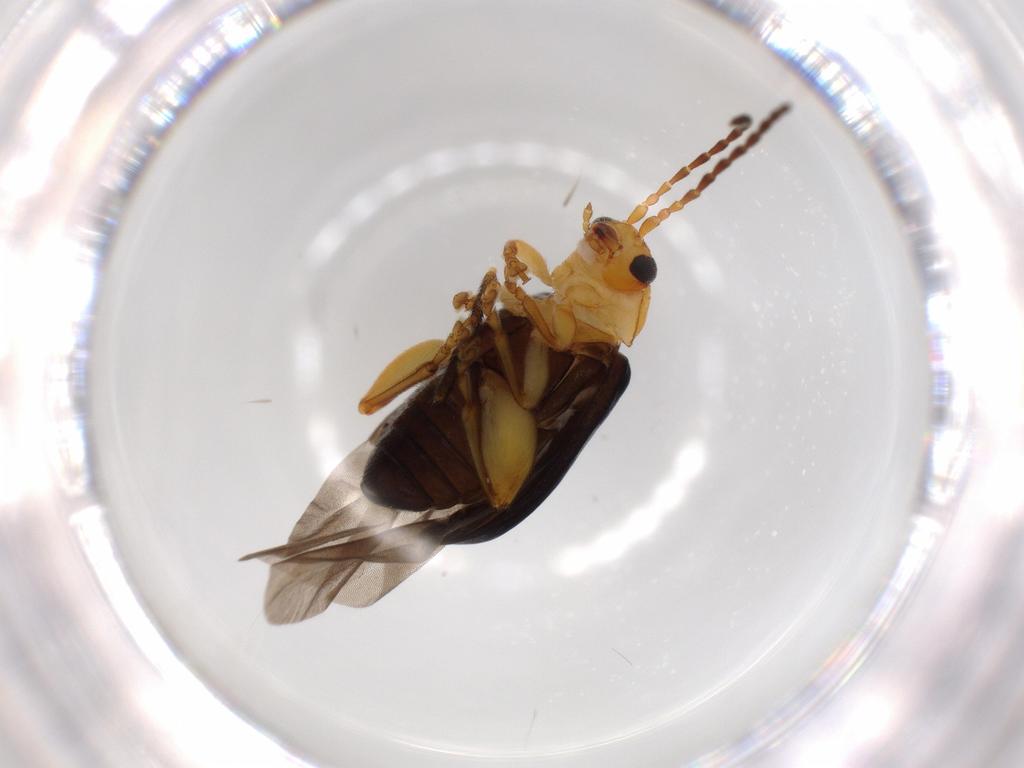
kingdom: Animalia
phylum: Arthropoda
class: Insecta
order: Coleoptera
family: Chrysomelidae
